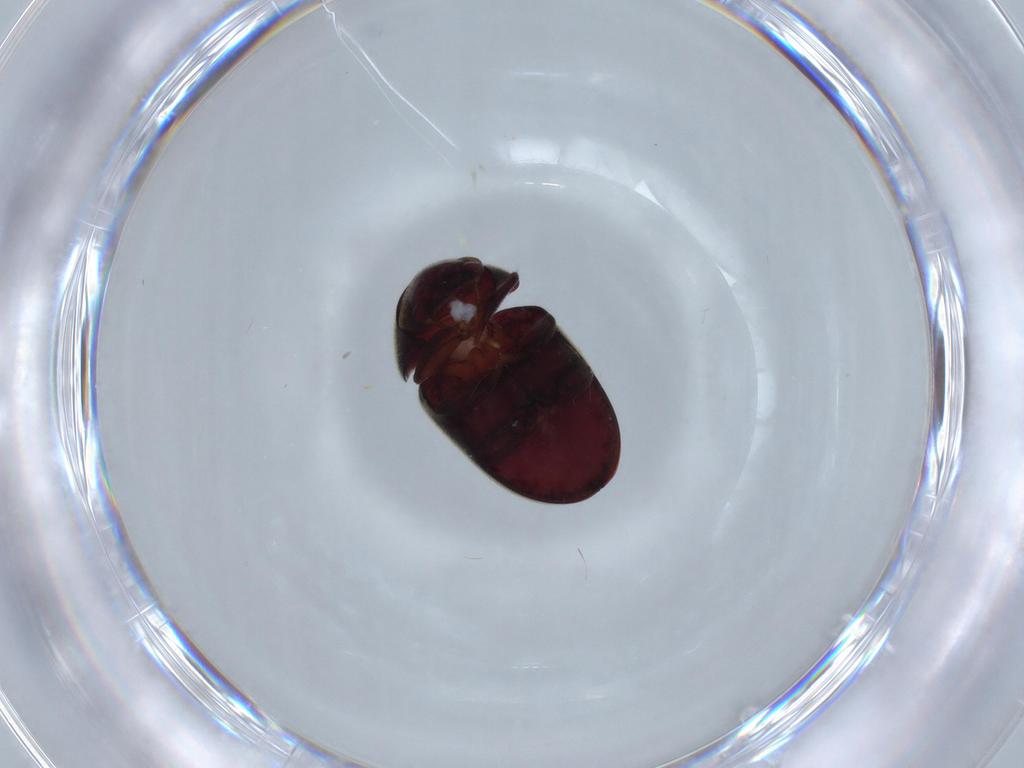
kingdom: Animalia
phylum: Arthropoda
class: Insecta
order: Coleoptera
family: Ptinidae
